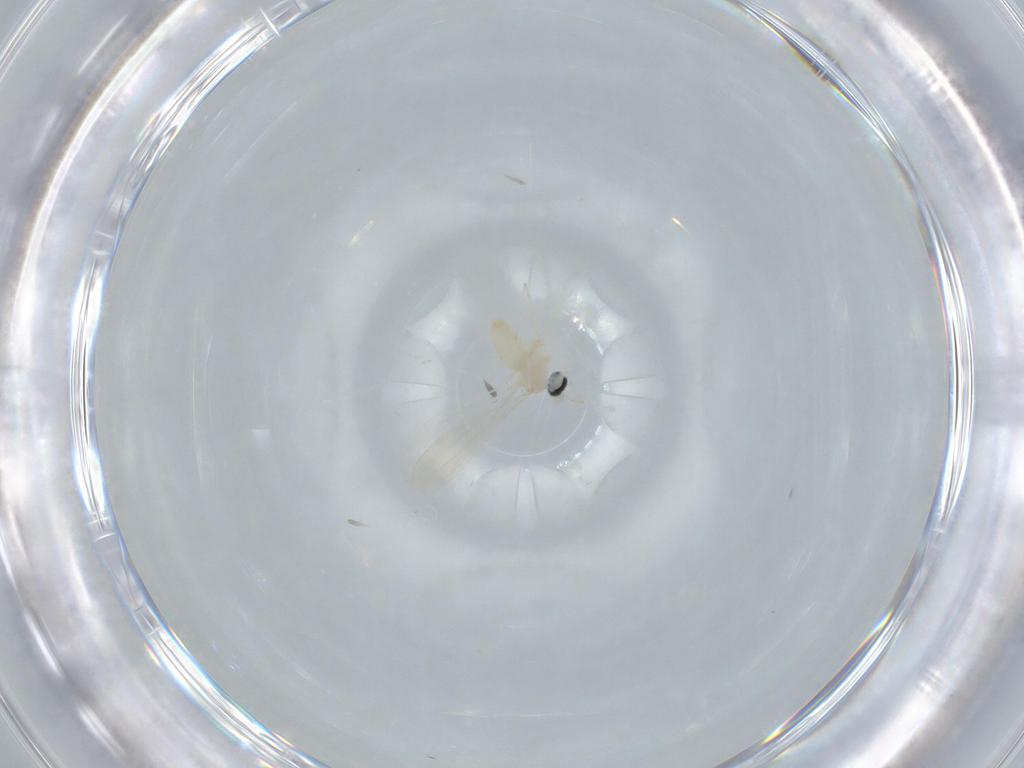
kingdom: Animalia
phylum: Arthropoda
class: Insecta
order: Diptera
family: Cecidomyiidae
